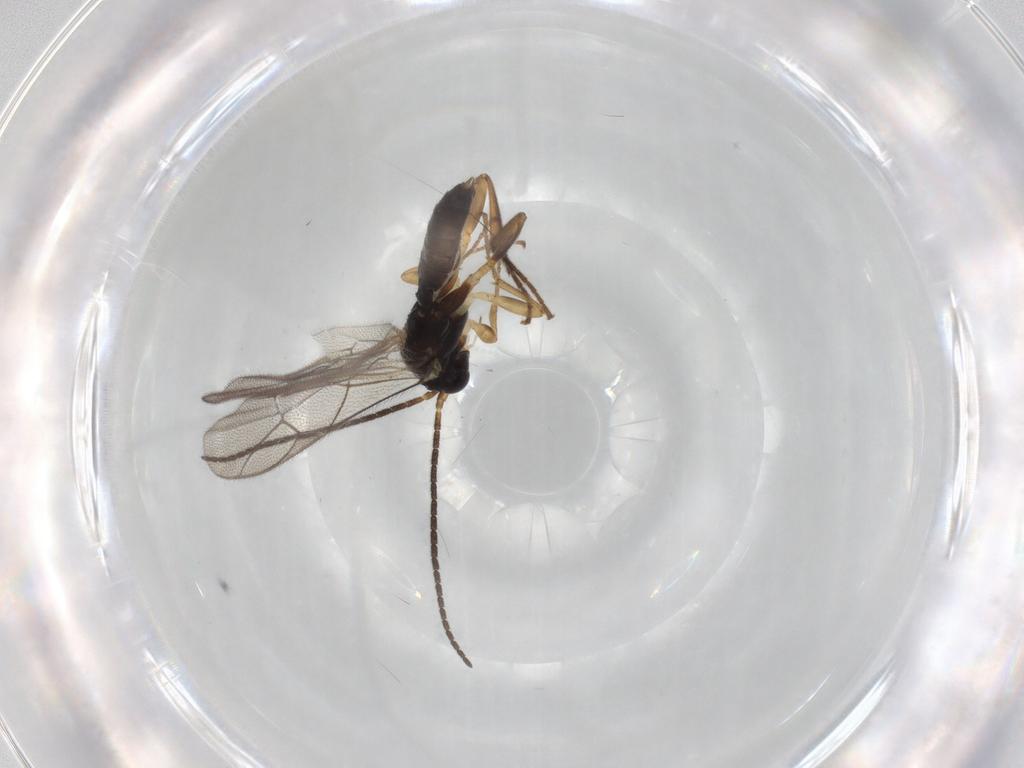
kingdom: Animalia
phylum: Arthropoda
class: Insecta
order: Hymenoptera
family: Ichneumonidae
